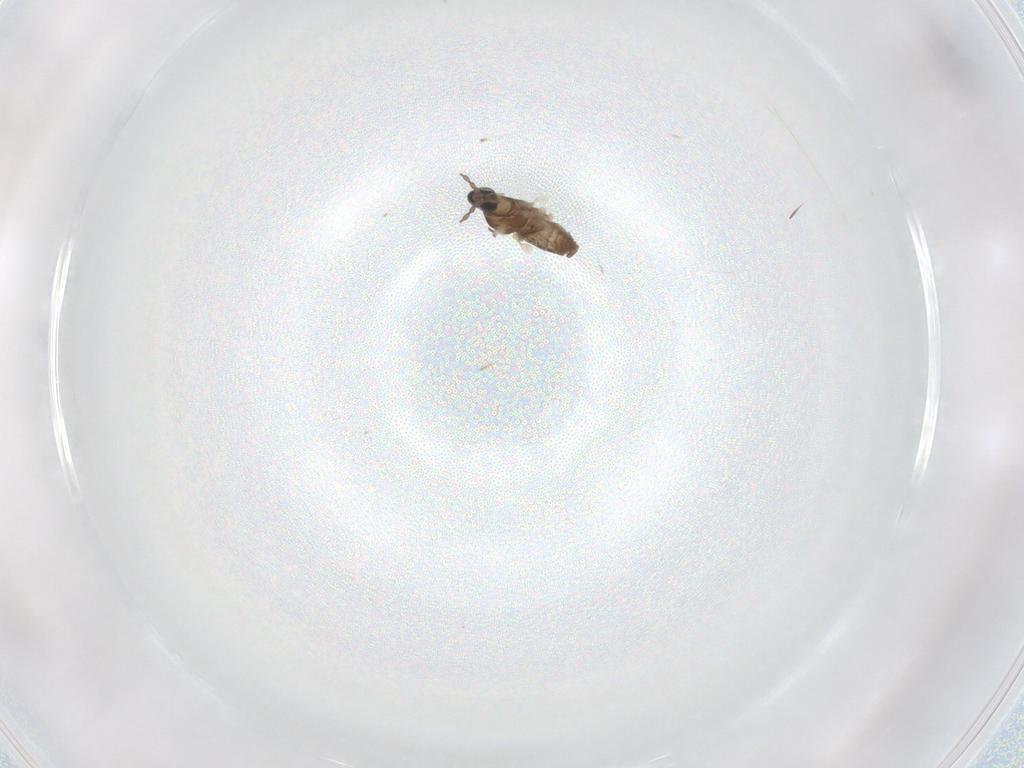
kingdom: Animalia
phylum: Arthropoda
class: Insecta
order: Diptera
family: Cecidomyiidae
